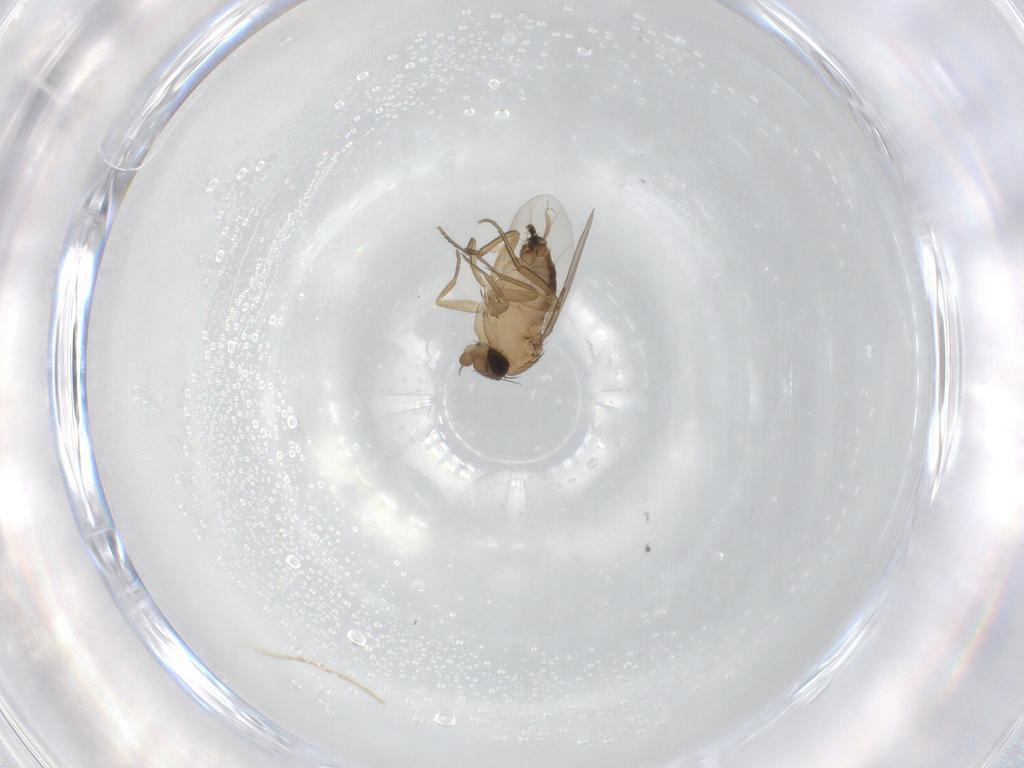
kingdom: Animalia
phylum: Arthropoda
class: Insecta
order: Diptera
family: Phoridae
